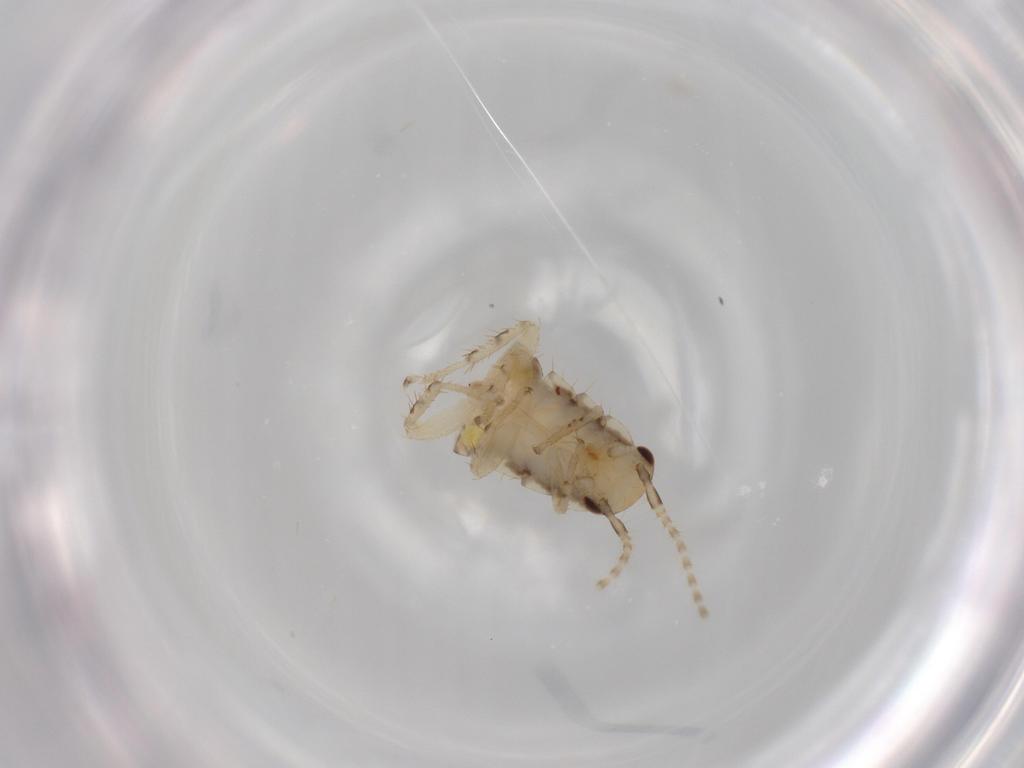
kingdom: Animalia
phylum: Arthropoda
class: Insecta
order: Blattodea
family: Ectobiidae
